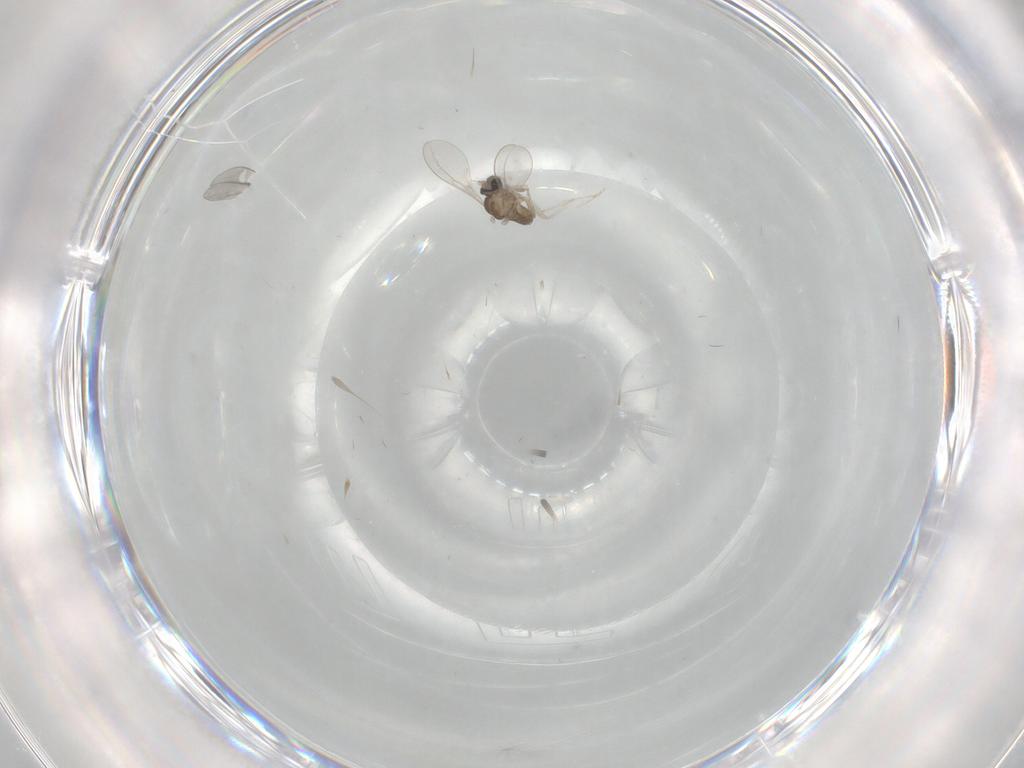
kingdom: Animalia
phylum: Arthropoda
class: Insecta
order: Diptera
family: Cecidomyiidae
